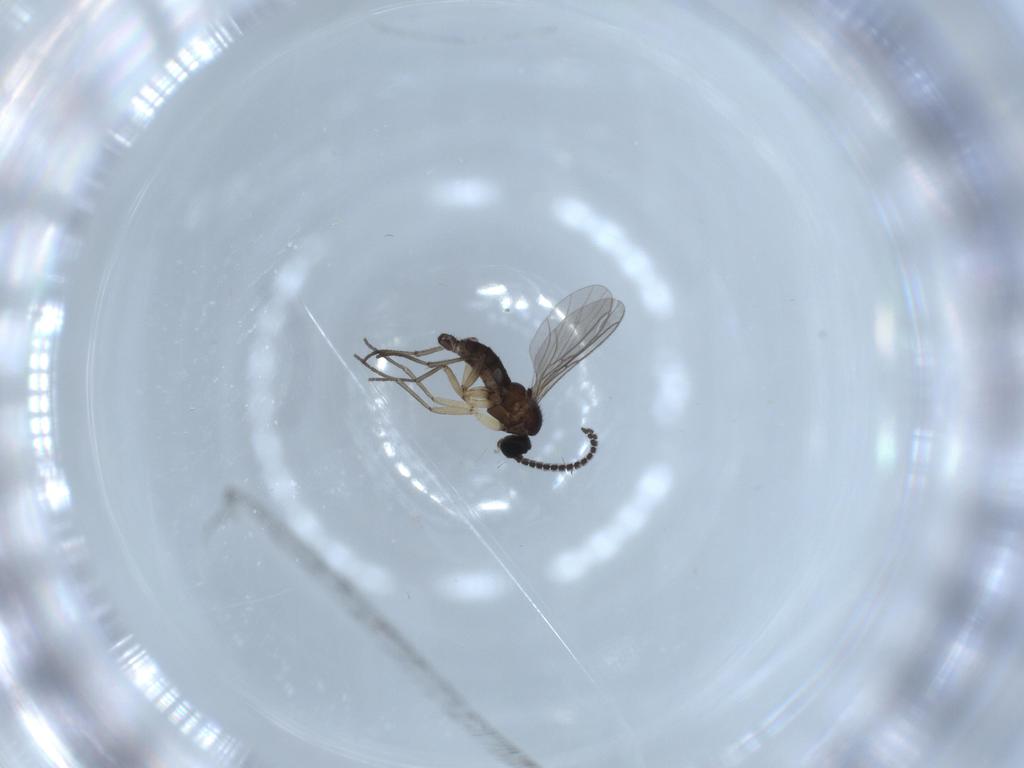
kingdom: Animalia
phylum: Arthropoda
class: Insecta
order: Diptera
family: Sciaridae
